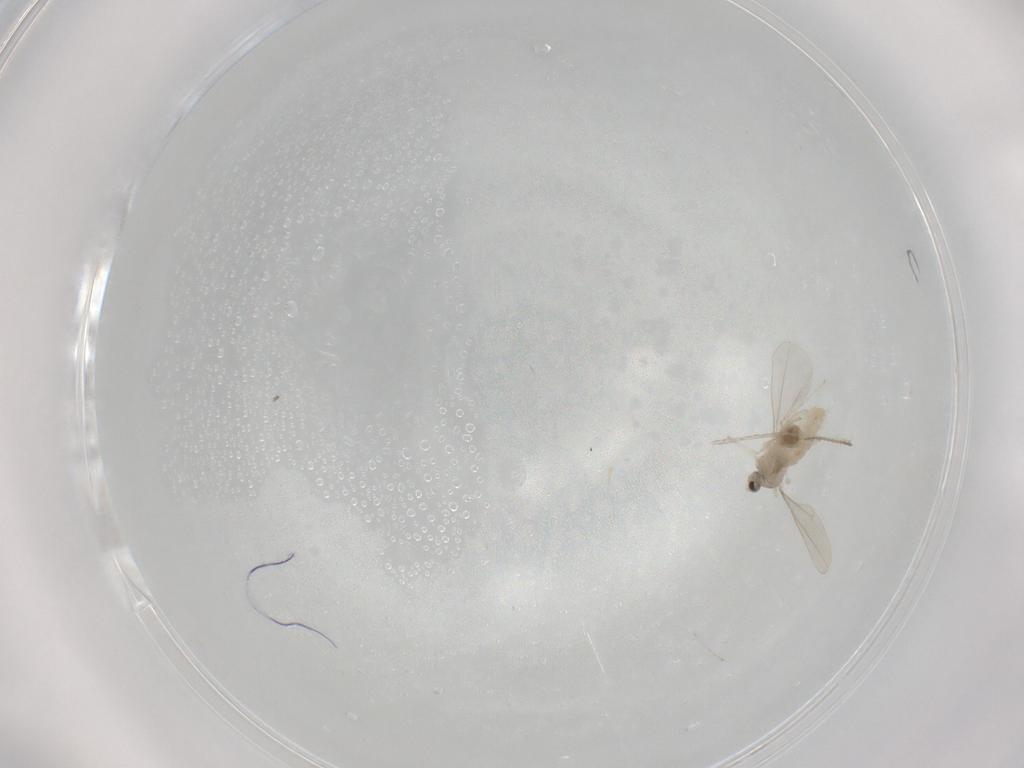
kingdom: Animalia
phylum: Arthropoda
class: Insecta
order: Diptera
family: Cecidomyiidae
